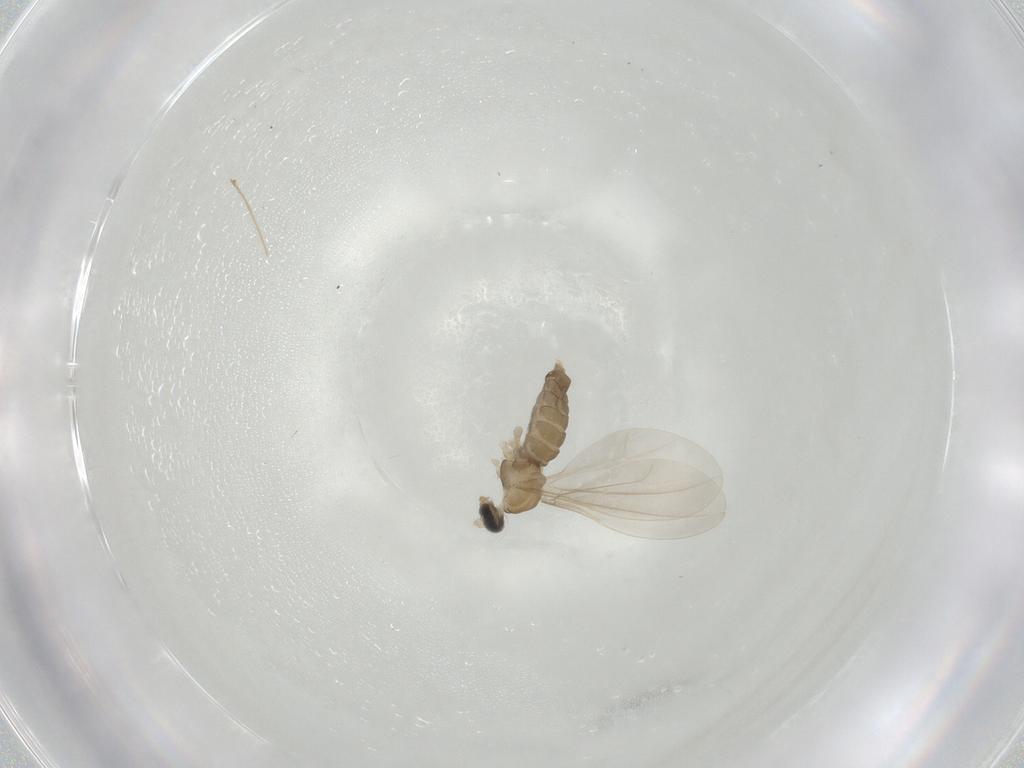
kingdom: Animalia
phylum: Arthropoda
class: Insecta
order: Diptera
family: Cecidomyiidae
